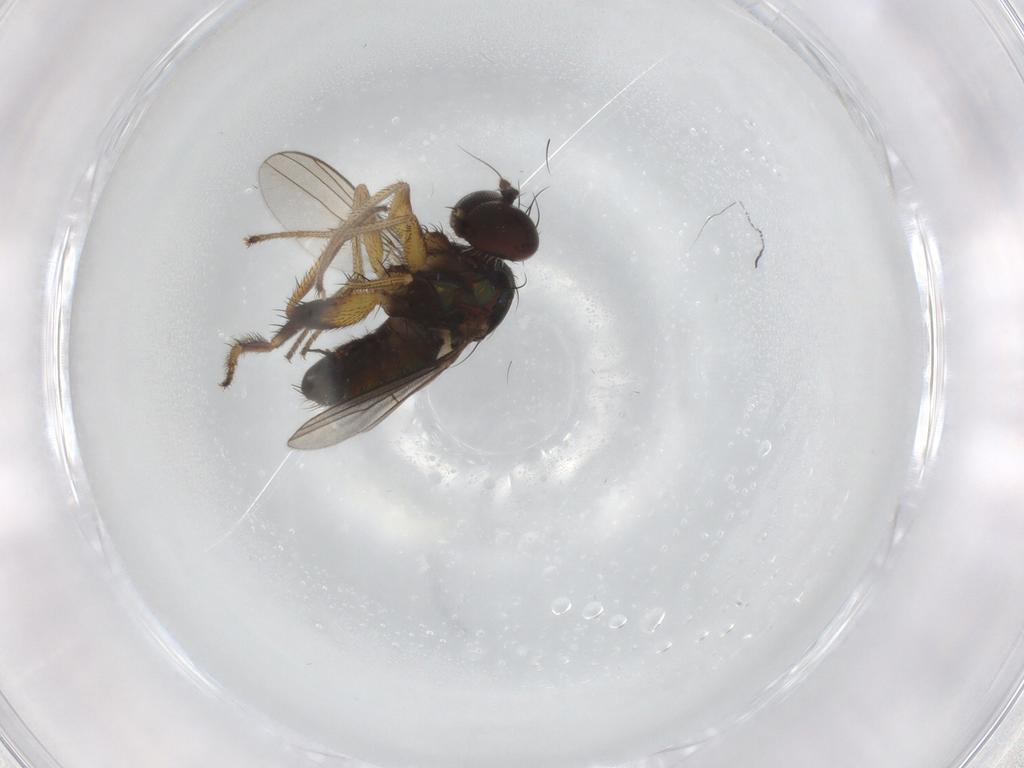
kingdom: Animalia
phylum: Arthropoda
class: Insecta
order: Diptera
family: Dolichopodidae
